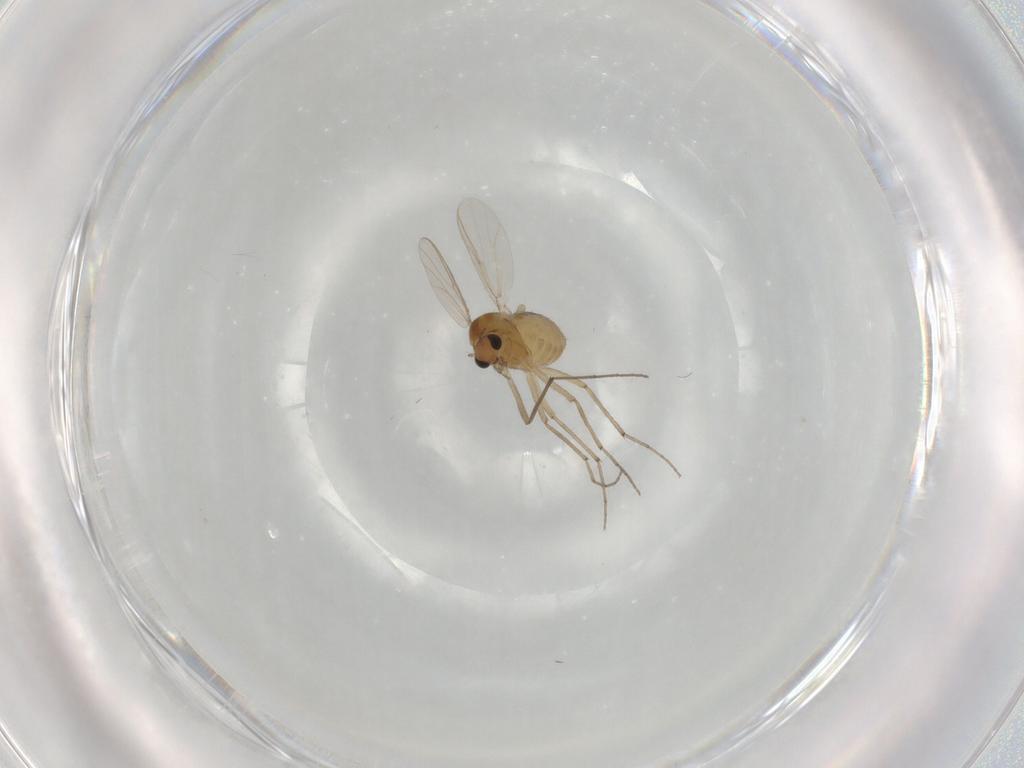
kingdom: Animalia
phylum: Arthropoda
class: Insecta
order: Diptera
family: Chironomidae
